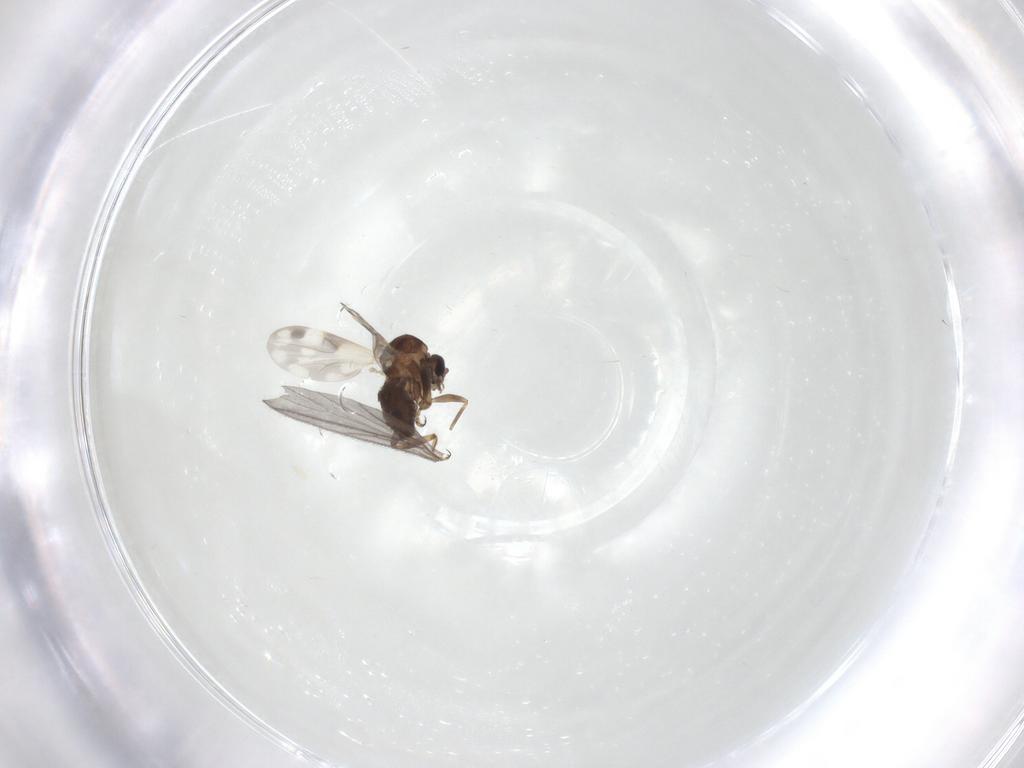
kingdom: Animalia
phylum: Arthropoda
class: Insecta
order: Diptera
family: Ceratopogonidae
